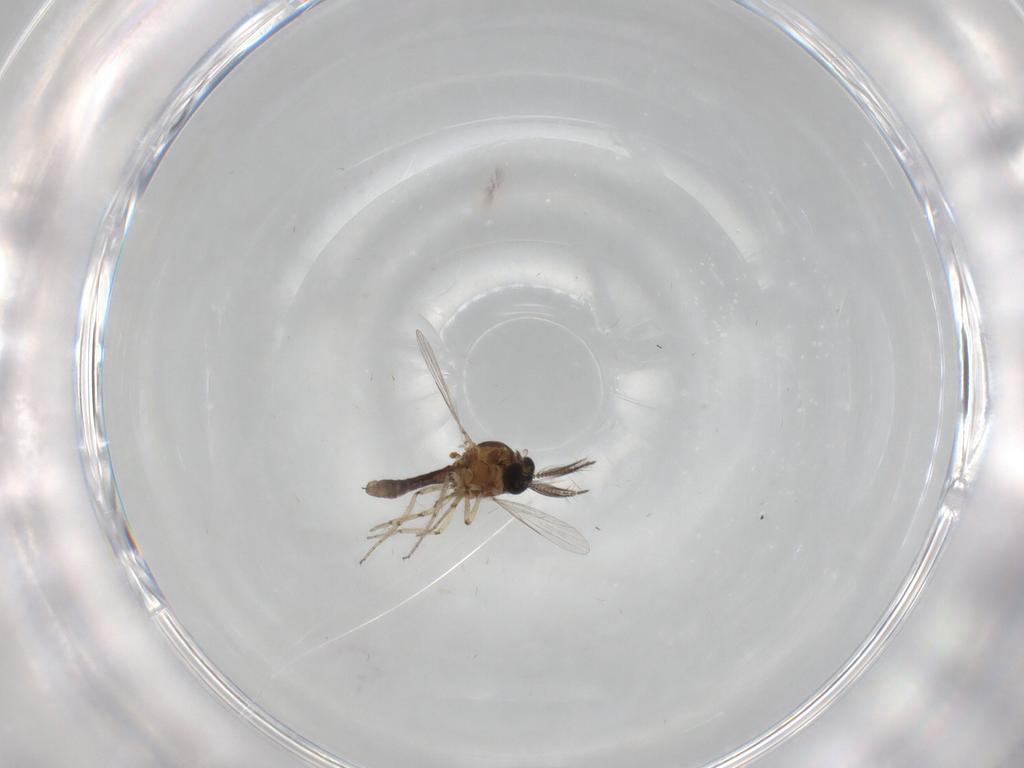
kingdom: Animalia
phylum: Arthropoda
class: Insecta
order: Diptera
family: Ceratopogonidae
